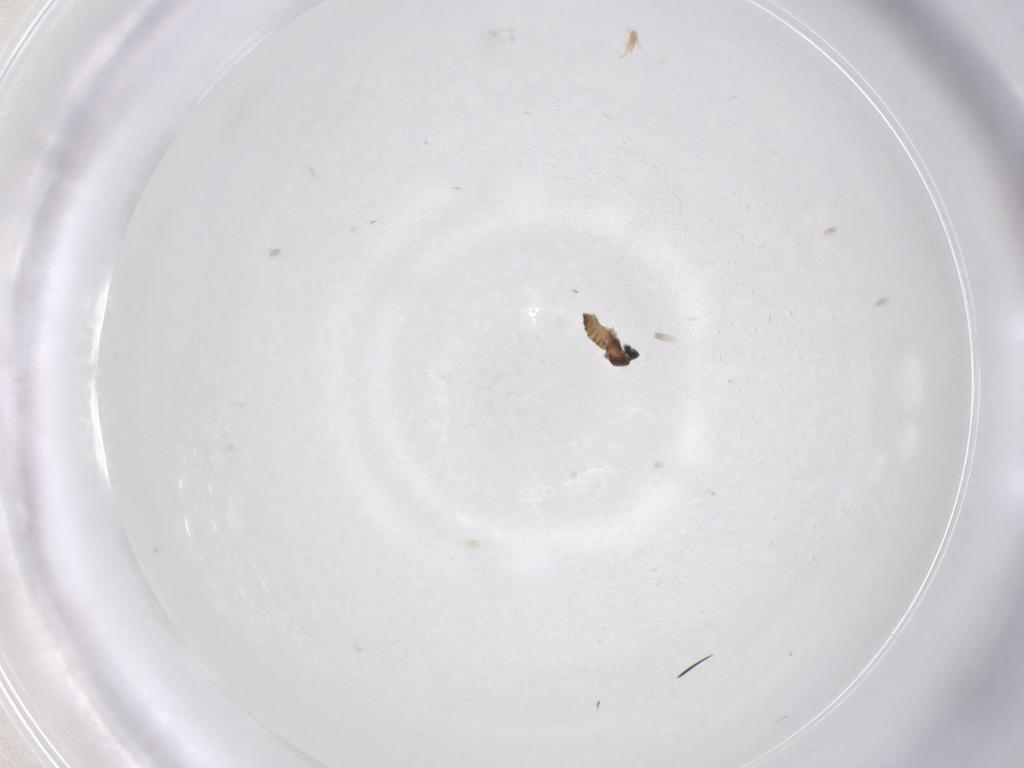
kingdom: Animalia
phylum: Arthropoda
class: Insecta
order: Diptera
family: Cecidomyiidae
